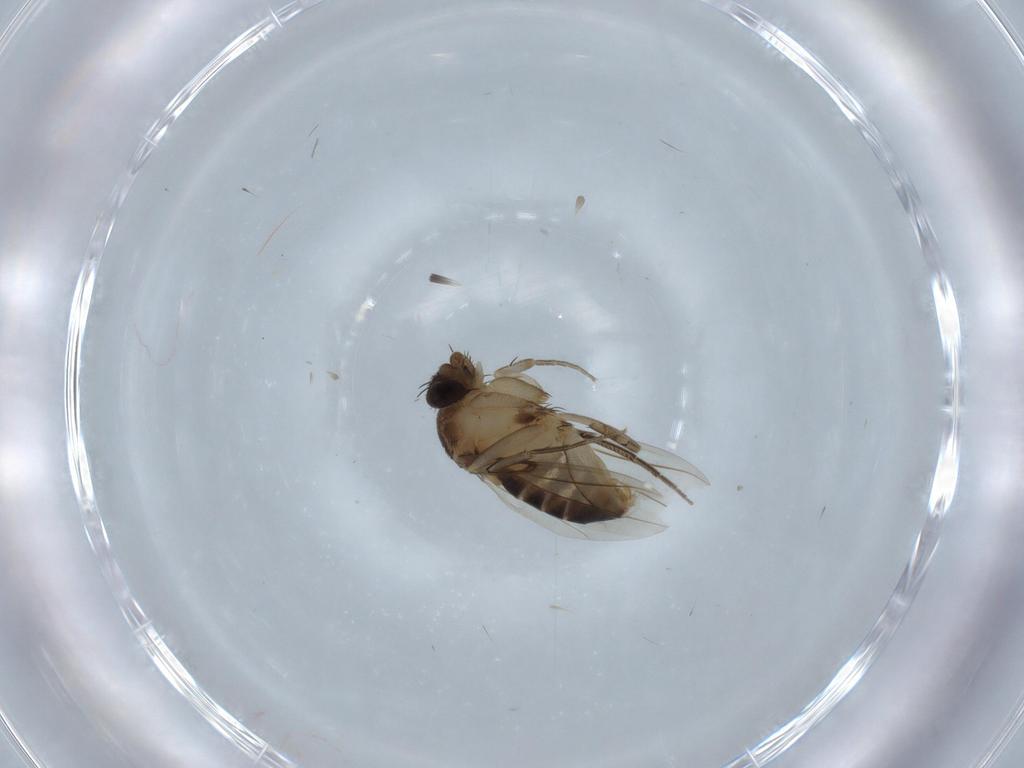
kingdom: Animalia
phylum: Arthropoda
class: Insecta
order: Diptera
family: Phoridae
